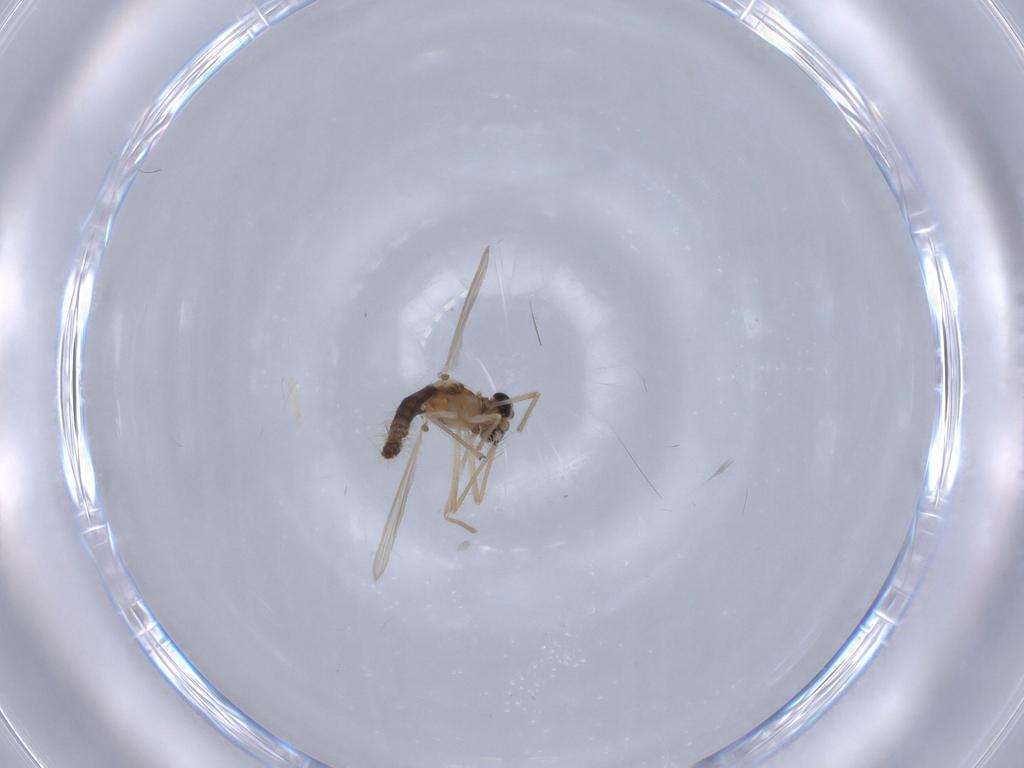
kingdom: Animalia
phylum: Arthropoda
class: Insecta
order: Diptera
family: Chironomidae
